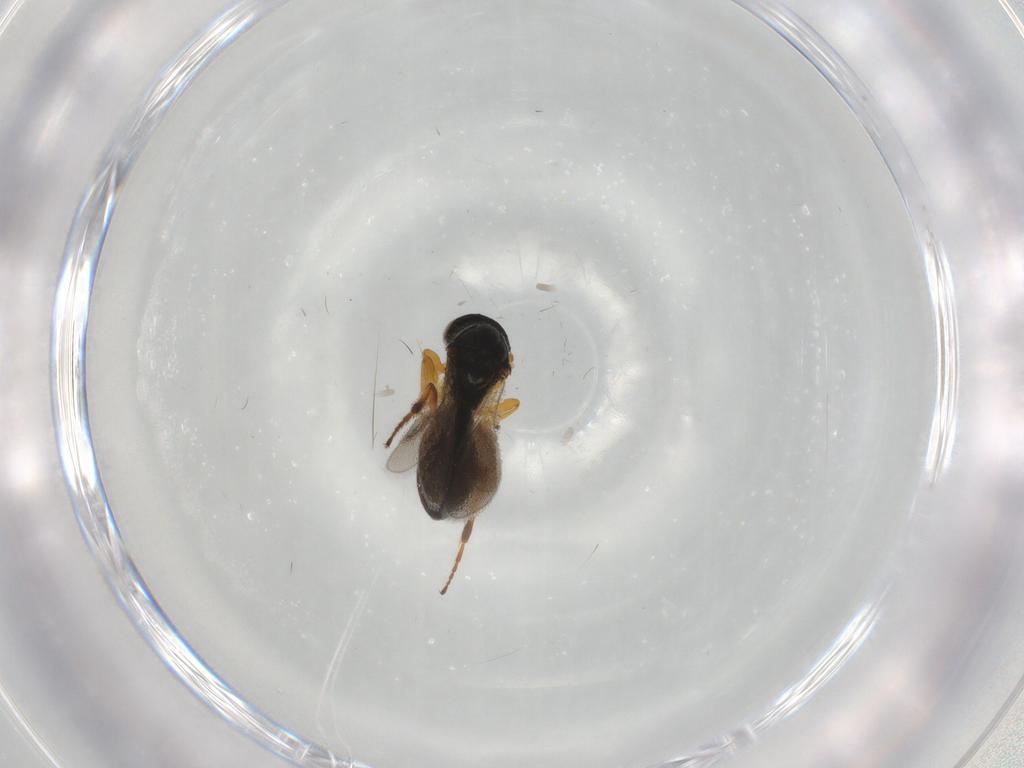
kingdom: Animalia
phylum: Arthropoda
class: Insecta
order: Hymenoptera
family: Platygastridae
